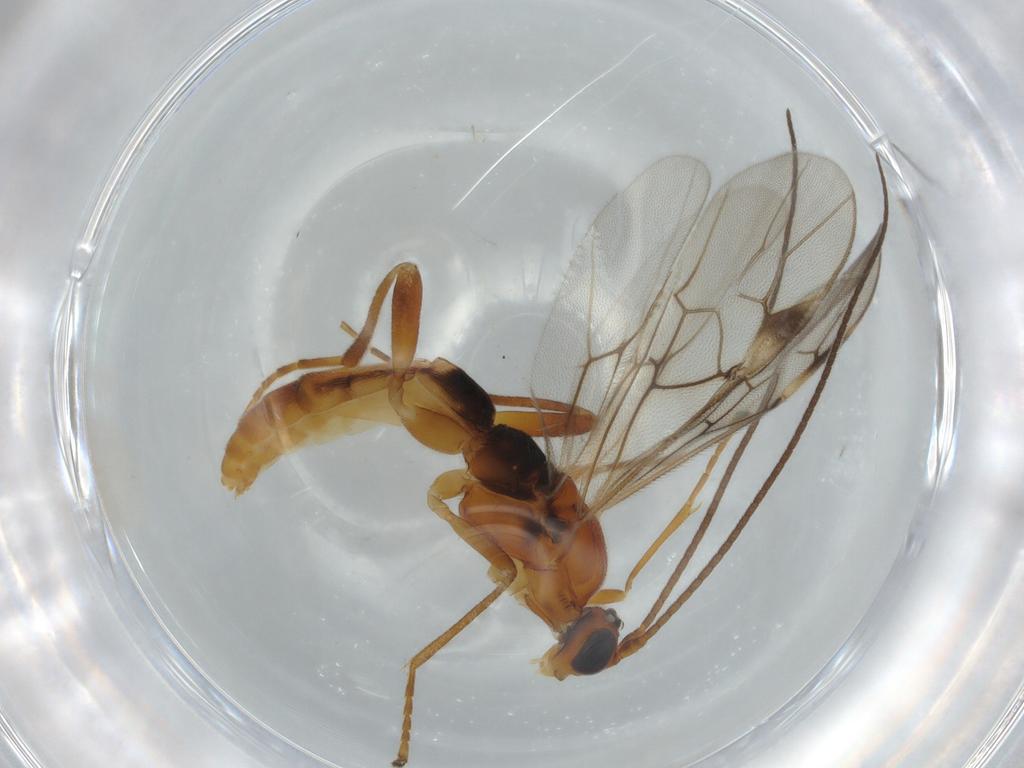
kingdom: Animalia
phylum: Arthropoda
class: Insecta
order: Hymenoptera
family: Encyrtidae
